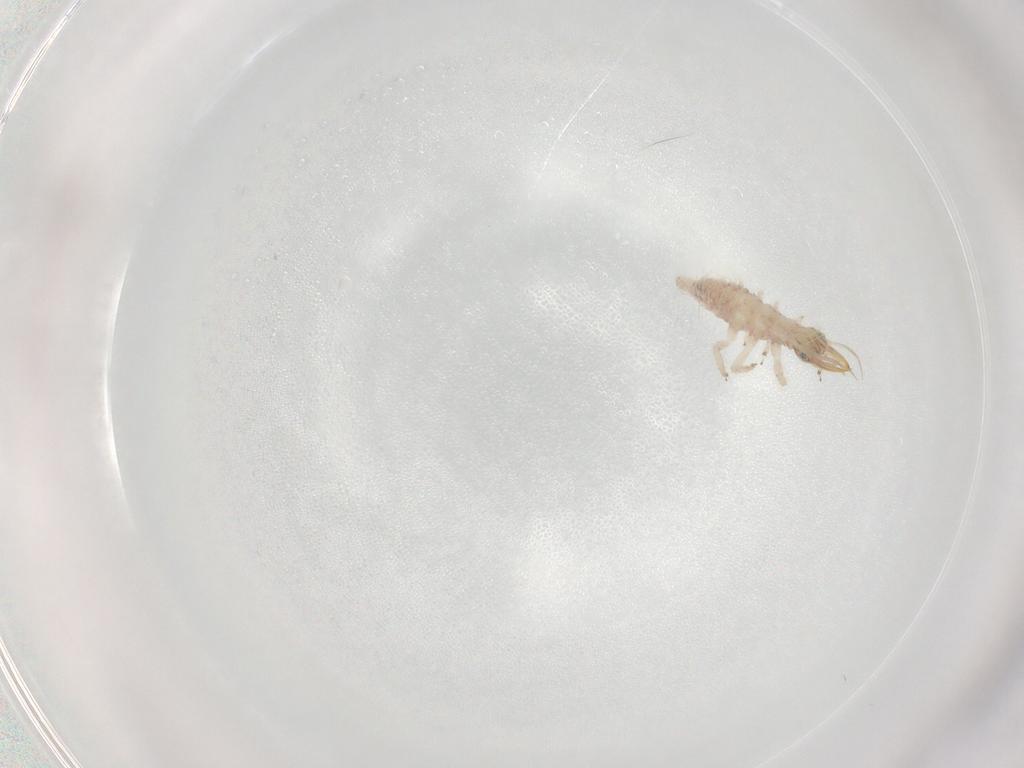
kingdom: Animalia
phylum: Arthropoda
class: Insecta
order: Neuroptera
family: Chrysopidae
